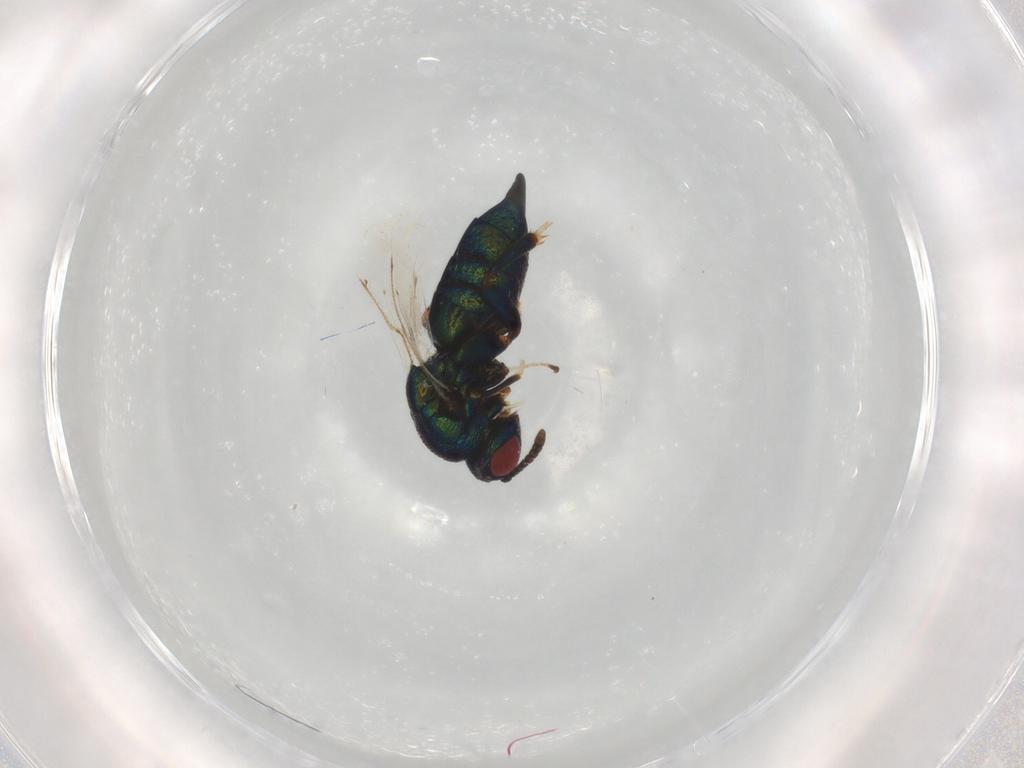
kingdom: Animalia
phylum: Arthropoda
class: Insecta
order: Hymenoptera
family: Ormyridae
